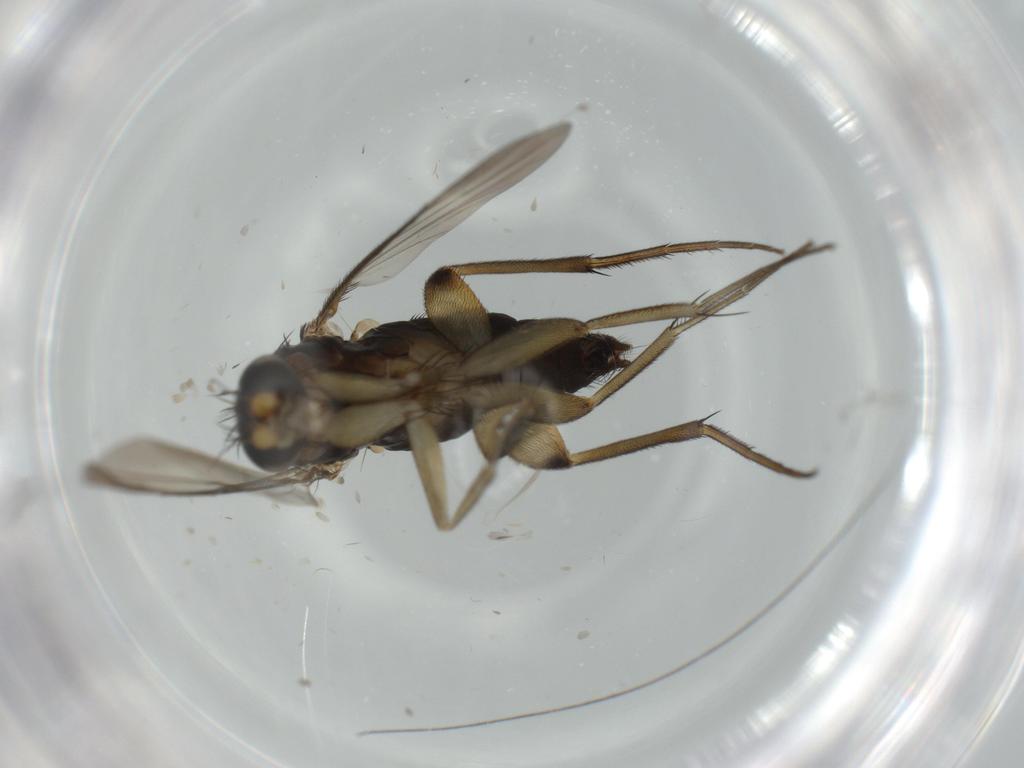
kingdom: Animalia
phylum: Arthropoda
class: Insecta
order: Diptera
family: Phoridae
